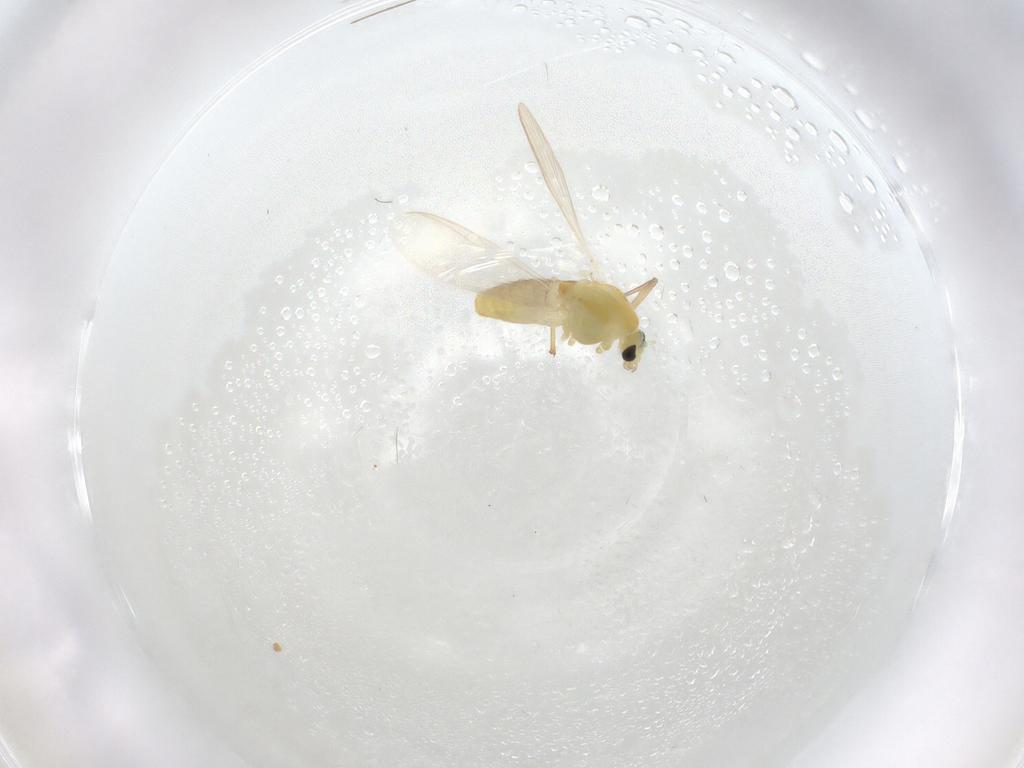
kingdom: Animalia
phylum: Arthropoda
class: Insecta
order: Diptera
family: Chironomidae
